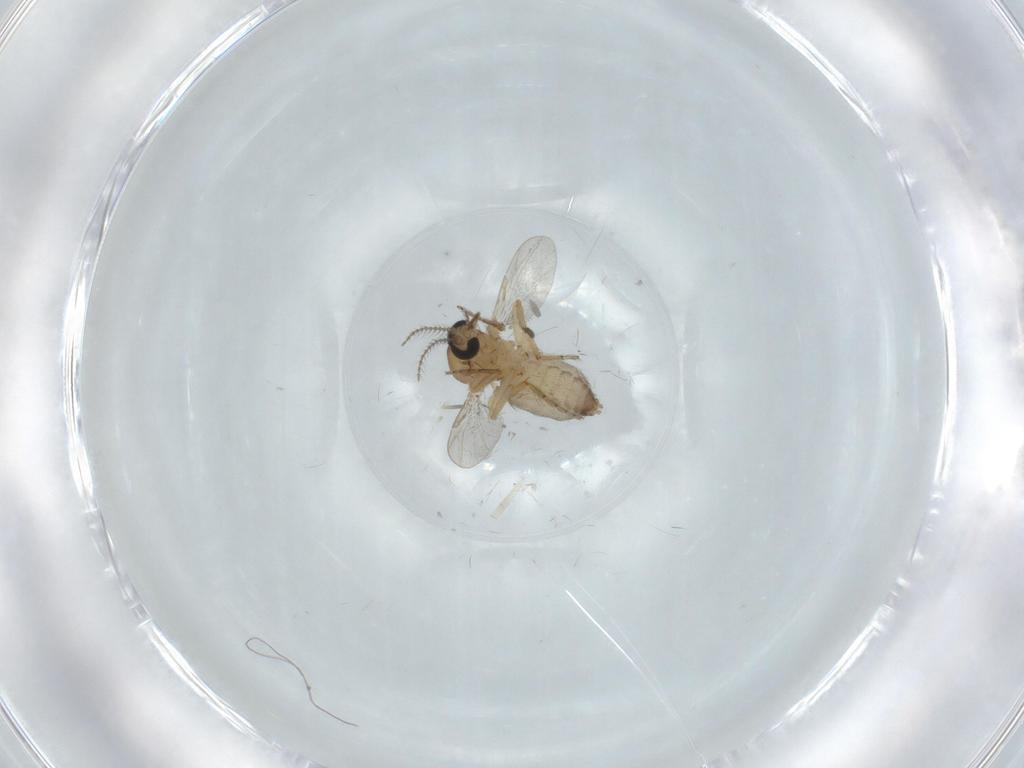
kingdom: Animalia
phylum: Arthropoda
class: Insecta
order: Diptera
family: Ceratopogonidae
